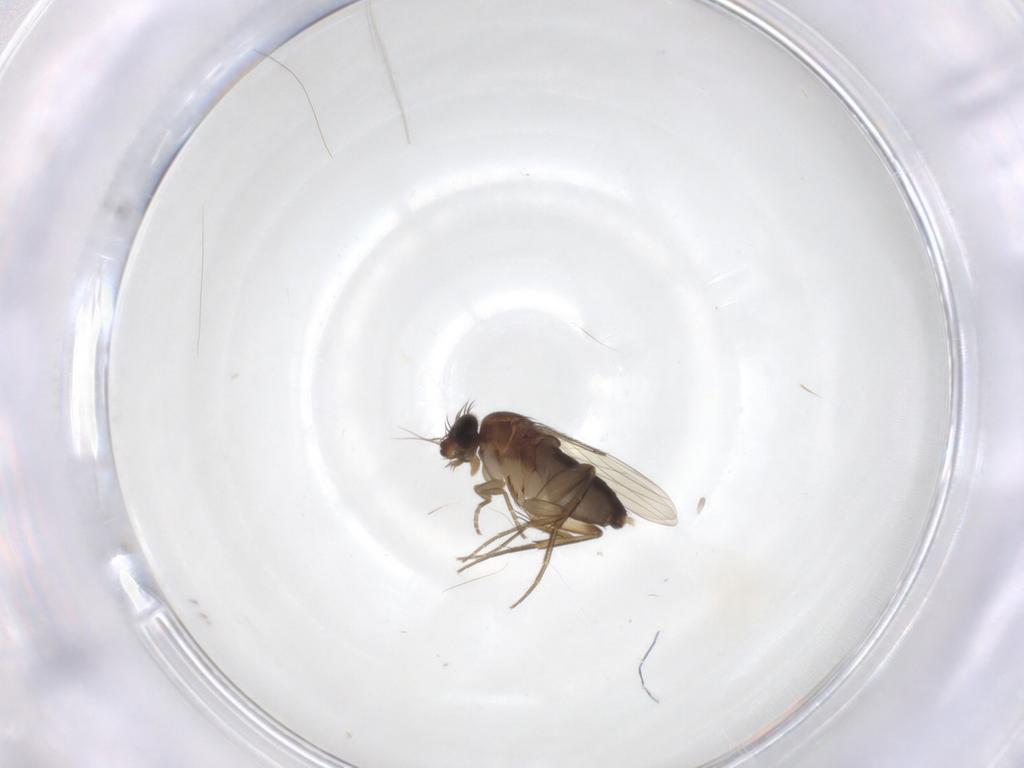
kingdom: Animalia
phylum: Arthropoda
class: Insecta
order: Diptera
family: Phoridae
